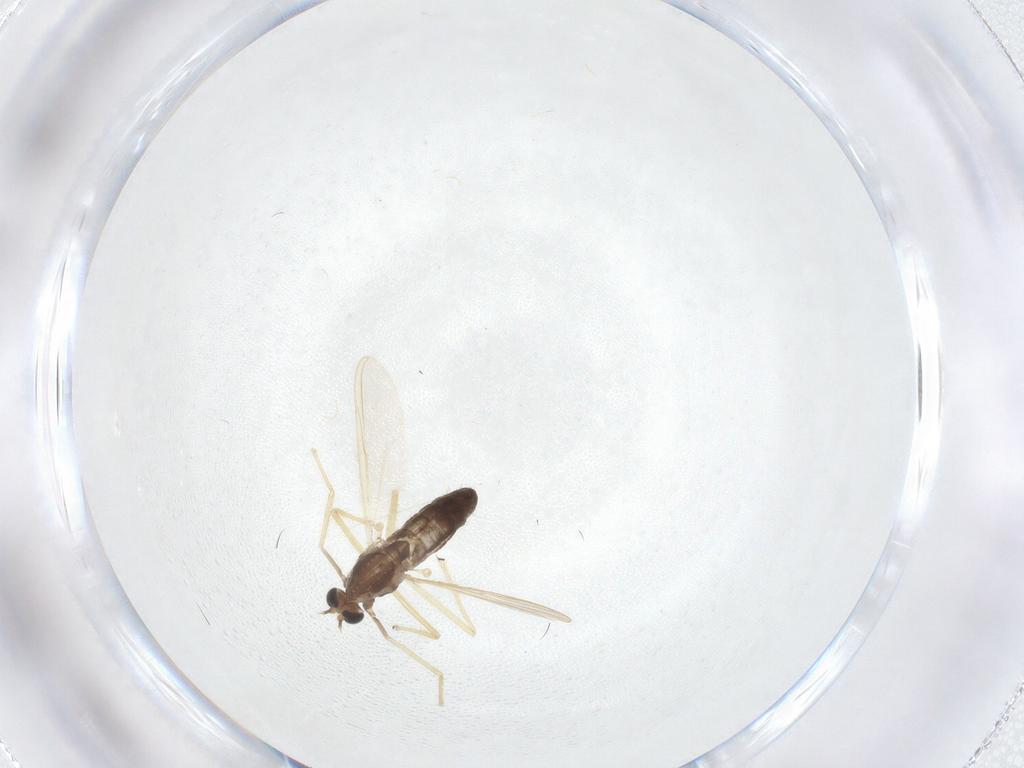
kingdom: Animalia
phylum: Arthropoda
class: Insecta
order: Diptera
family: Chironomidae
